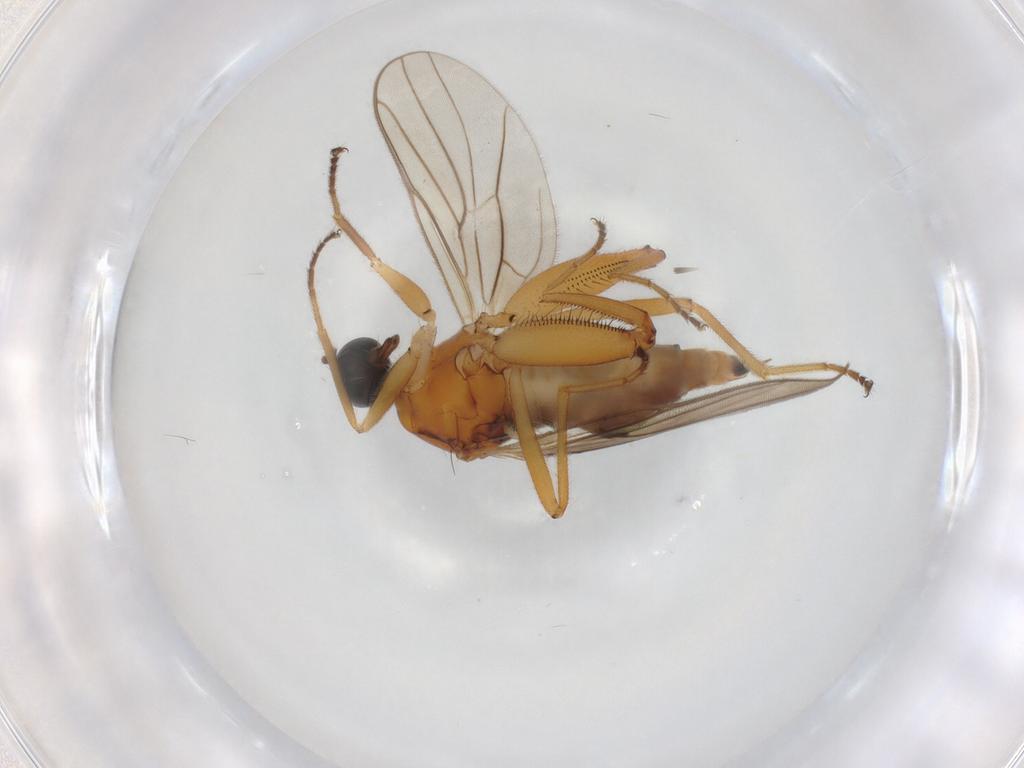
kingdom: Animalia
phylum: Arthropoda
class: Insecta
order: Diptera
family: Hybotidae
